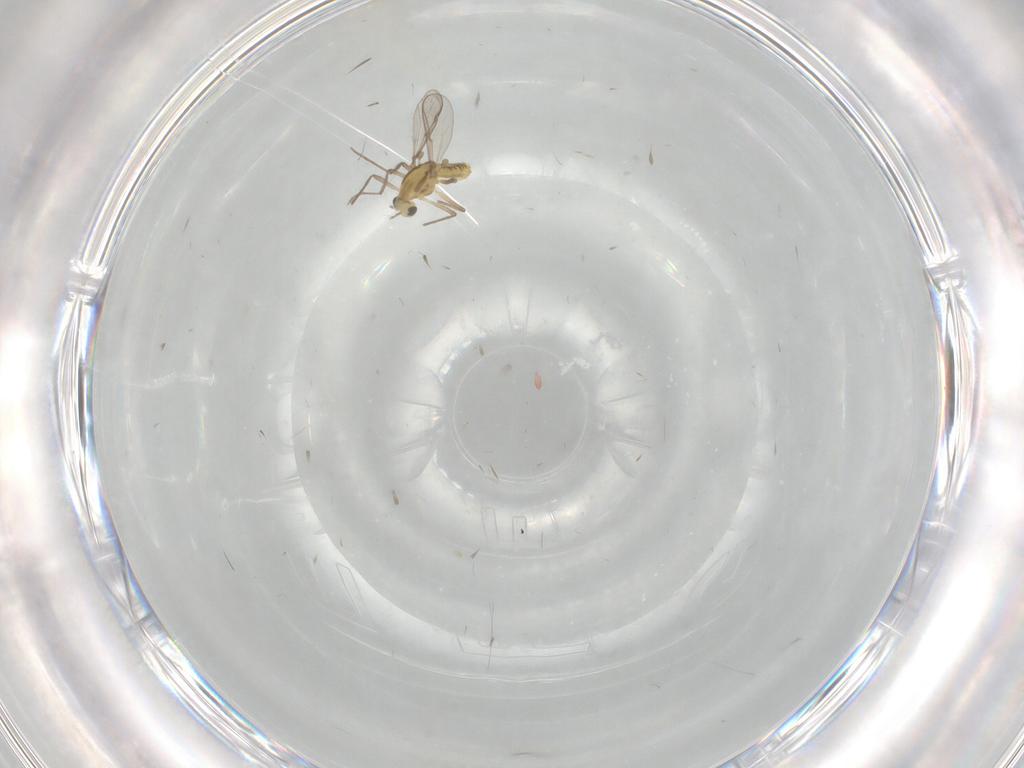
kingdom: Animalia
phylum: Arthropoda
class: Insecta
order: Diptera
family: Chironomidae
